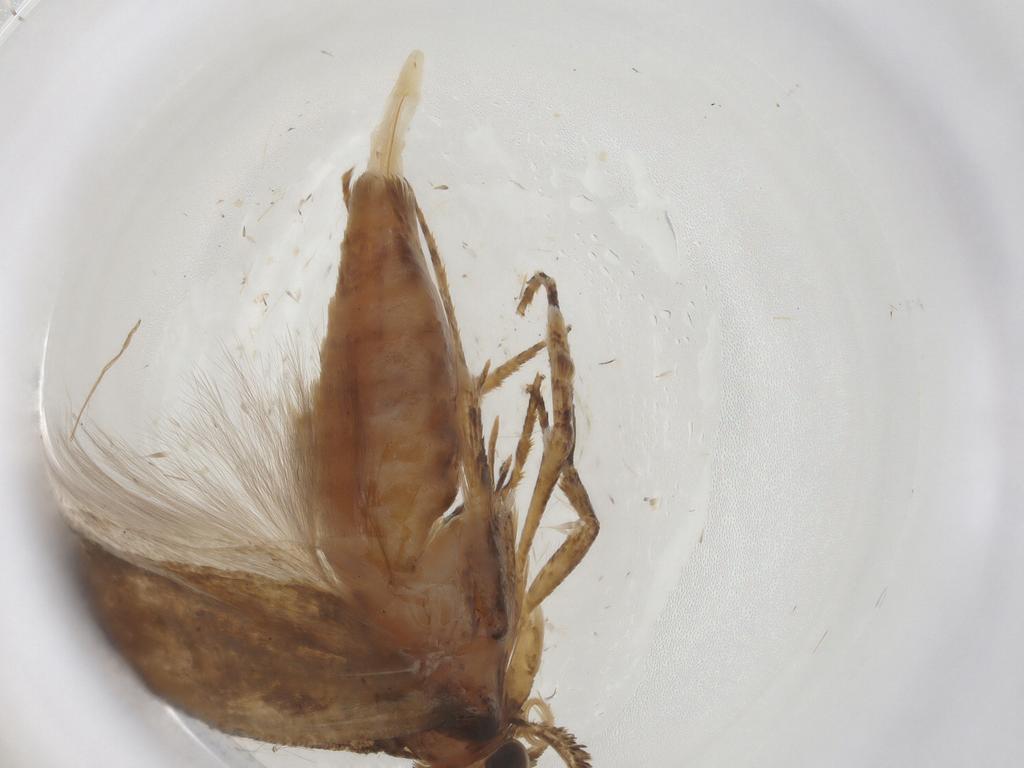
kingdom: Animalia
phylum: Arthropoda
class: Insecta
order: Lepidoptera
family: Gelechiidae
